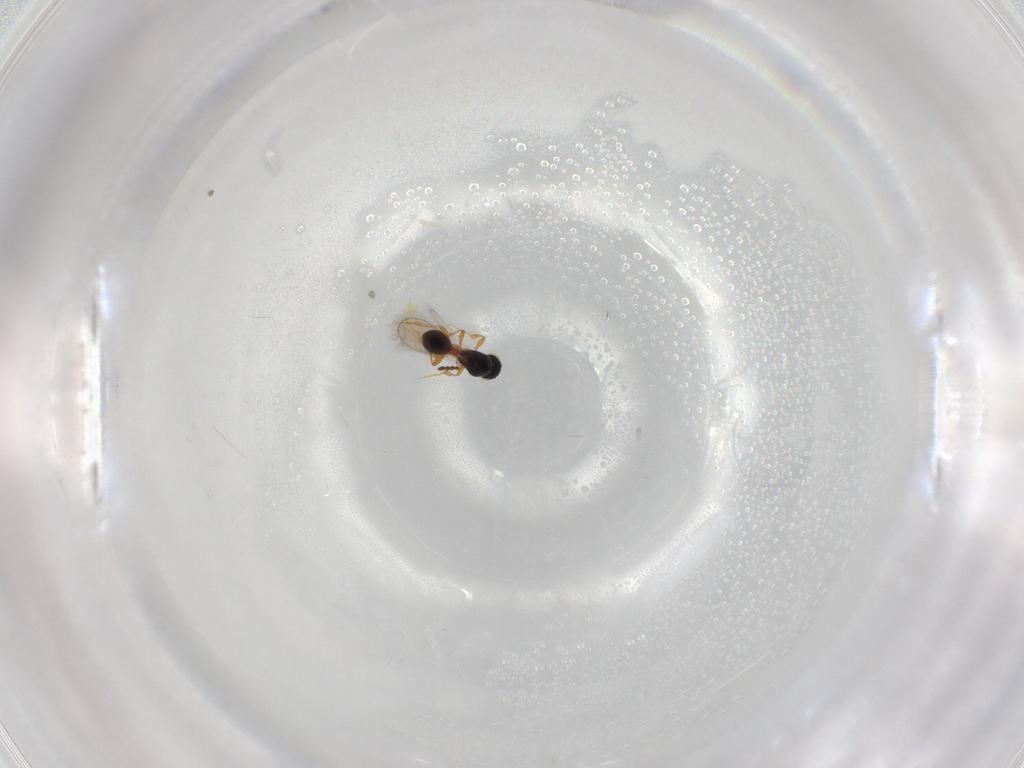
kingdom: Animalia
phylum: Arthropoda
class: Insecta
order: Hymenoptera
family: Platygastridae
